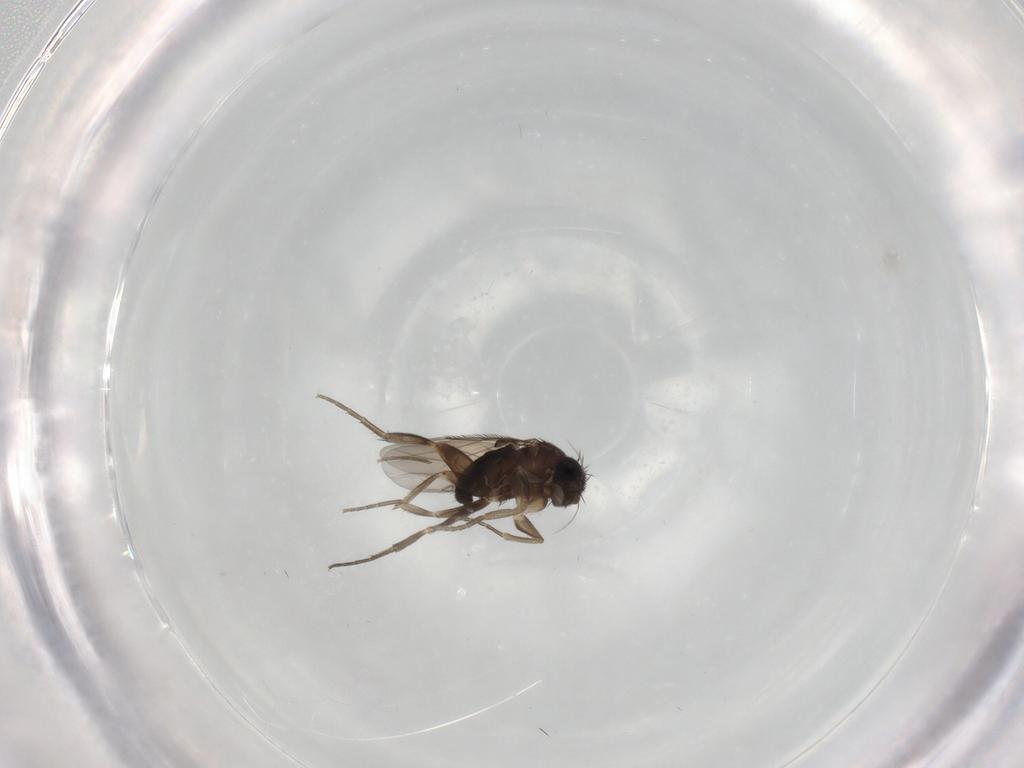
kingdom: Animalia
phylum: Arthropoda
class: Insecta
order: Diptera
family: Phoridae
